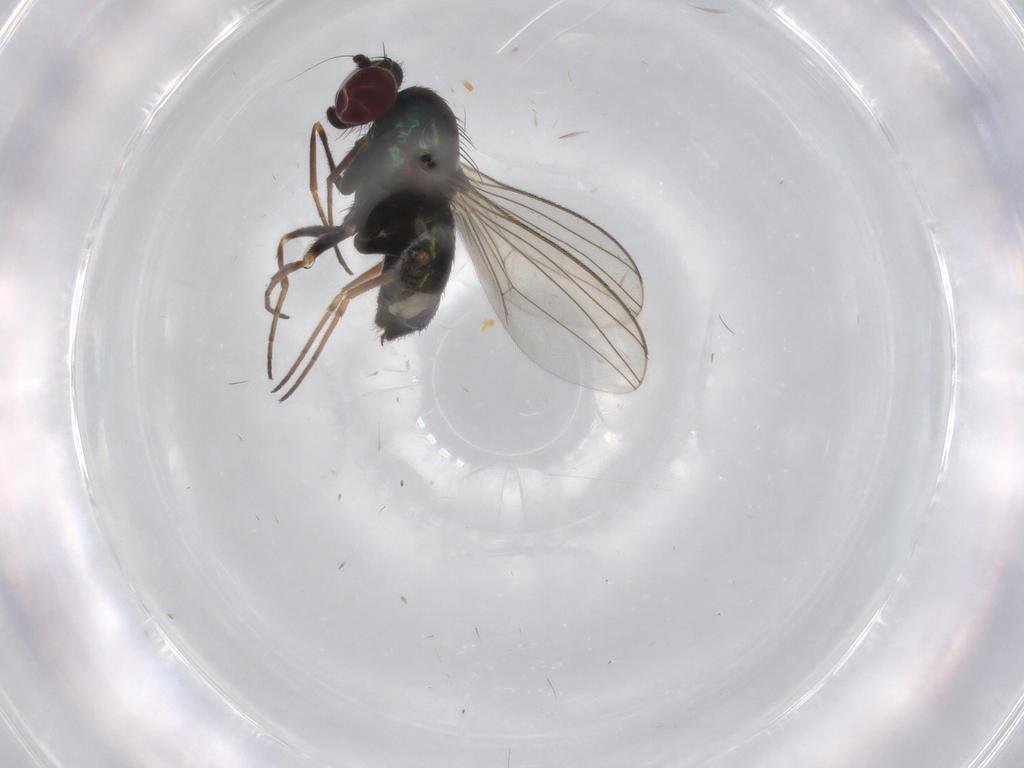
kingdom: Animalia
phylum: Arthropoda
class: Insecta
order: Diptera
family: Dolichopodidae
